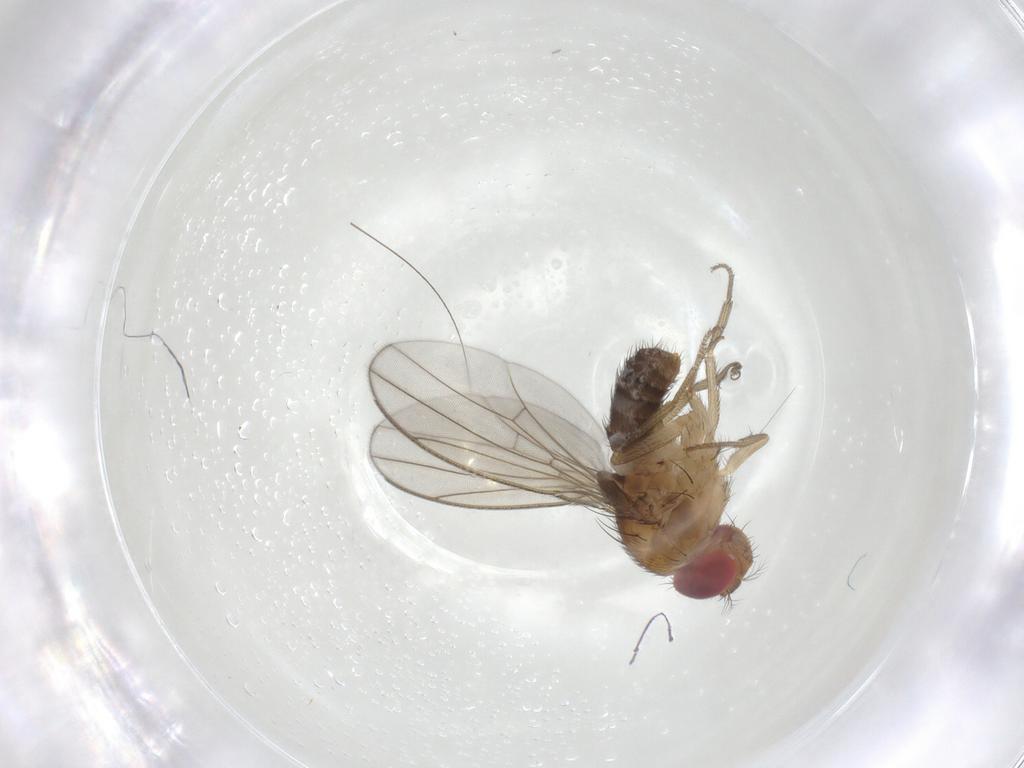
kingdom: Animalia
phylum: Arthropoda
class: Insecta
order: Diptera
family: Drosophilidae
